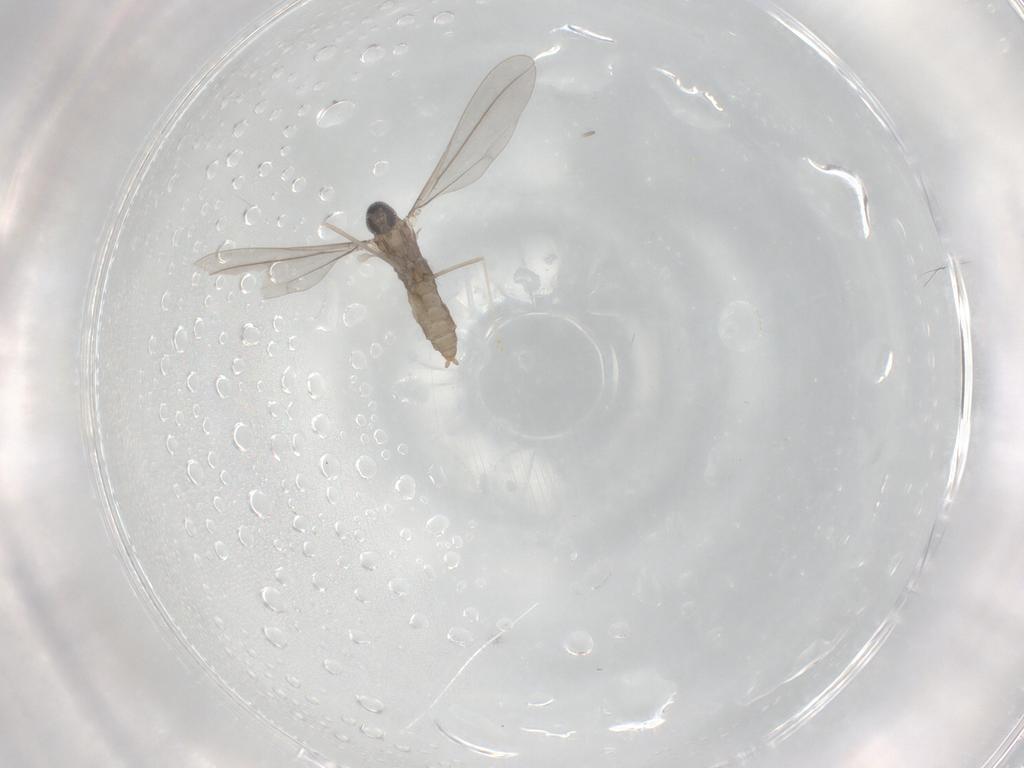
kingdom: Animalia
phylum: Arthropoda
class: Insecta
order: Diptera
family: Cecidomyiidae
